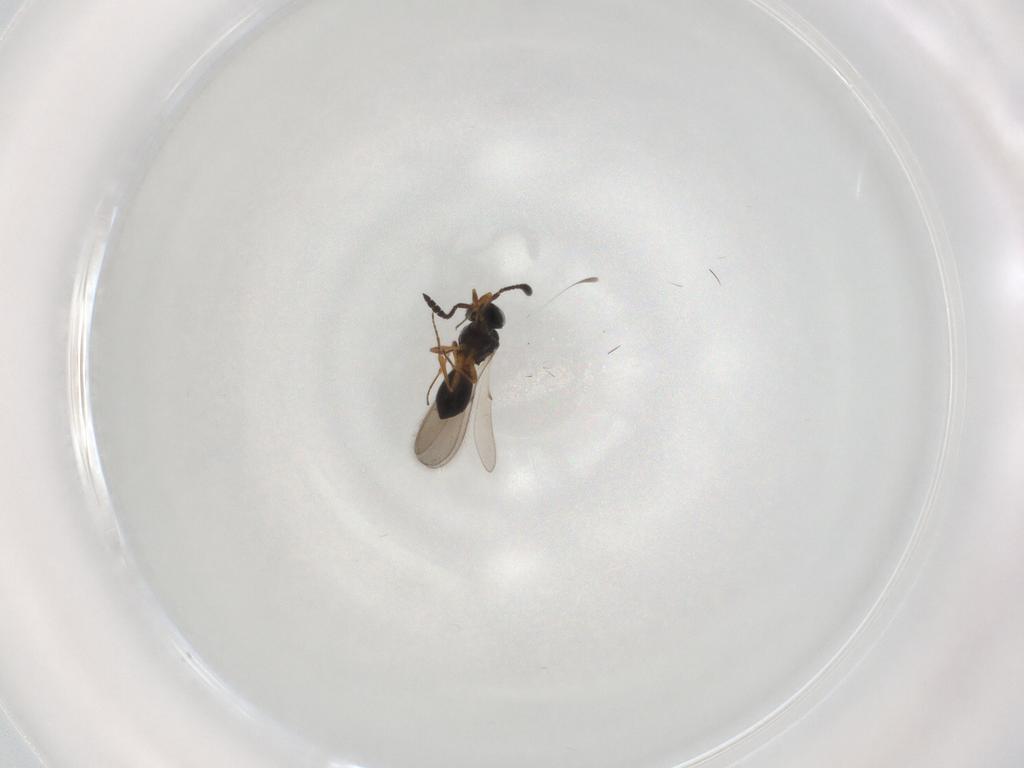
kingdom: Animalia
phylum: Arthropoda
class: Insecta
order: Hymenoptera
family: Scelionidae
